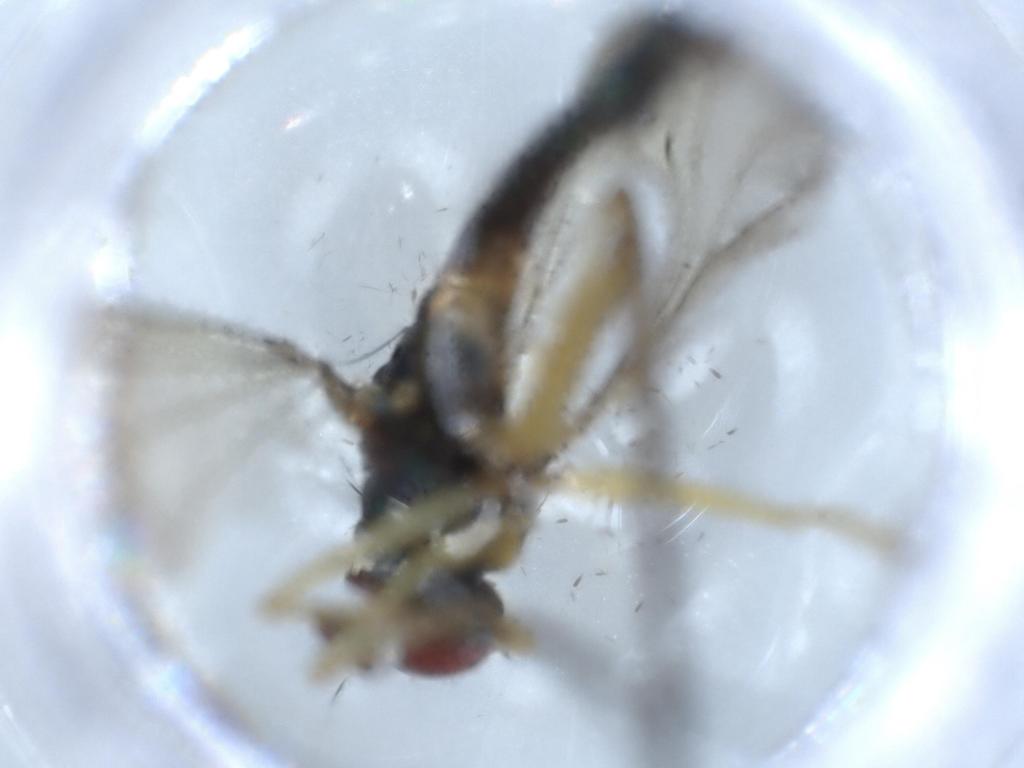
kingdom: Animalia
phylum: Arthropoda
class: Insecta
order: Diptera
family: Dolichopodidae
